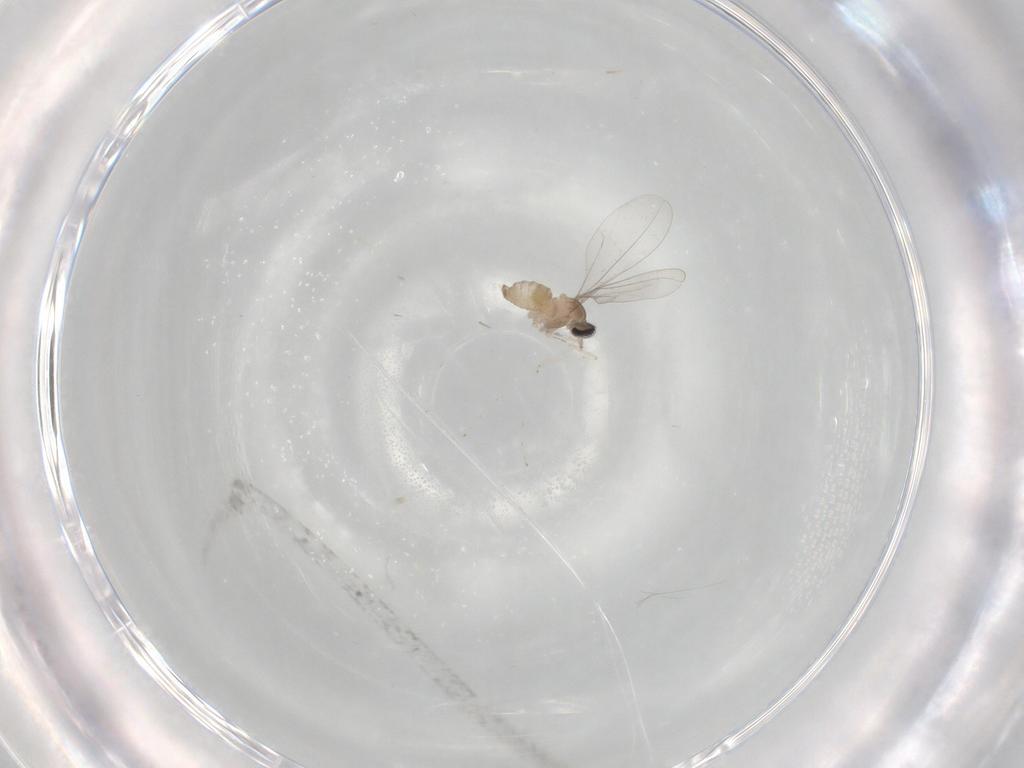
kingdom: Animalia
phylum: Arthropoda
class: Insecta
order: Diptera
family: Cecidomyiidae
